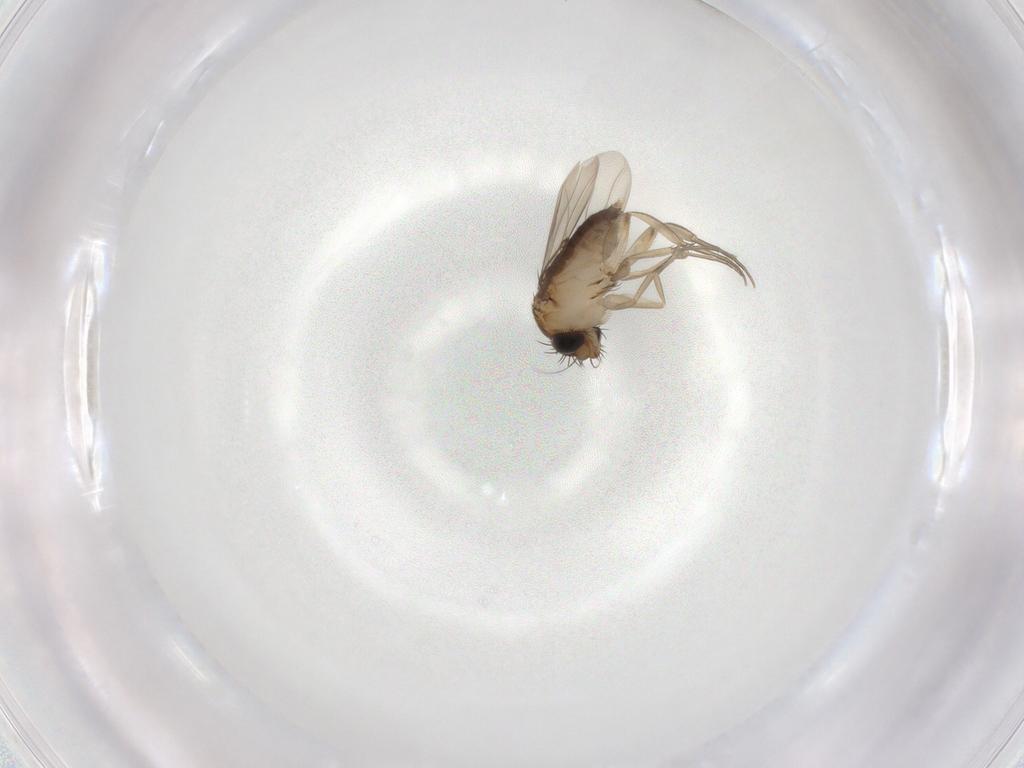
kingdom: Animalia
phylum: Arthropoda
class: Insecta
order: Diptera
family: Phoridae
